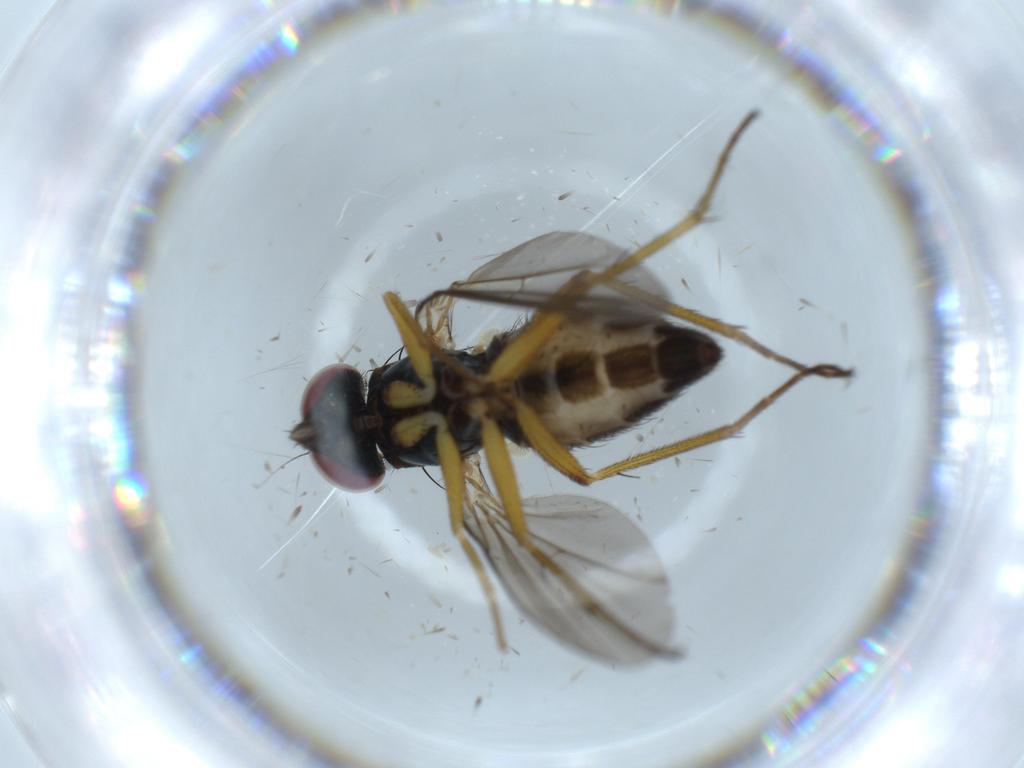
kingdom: Animalia
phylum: Arthropoda
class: Insecta
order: Diptera
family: Dolichopodidae
